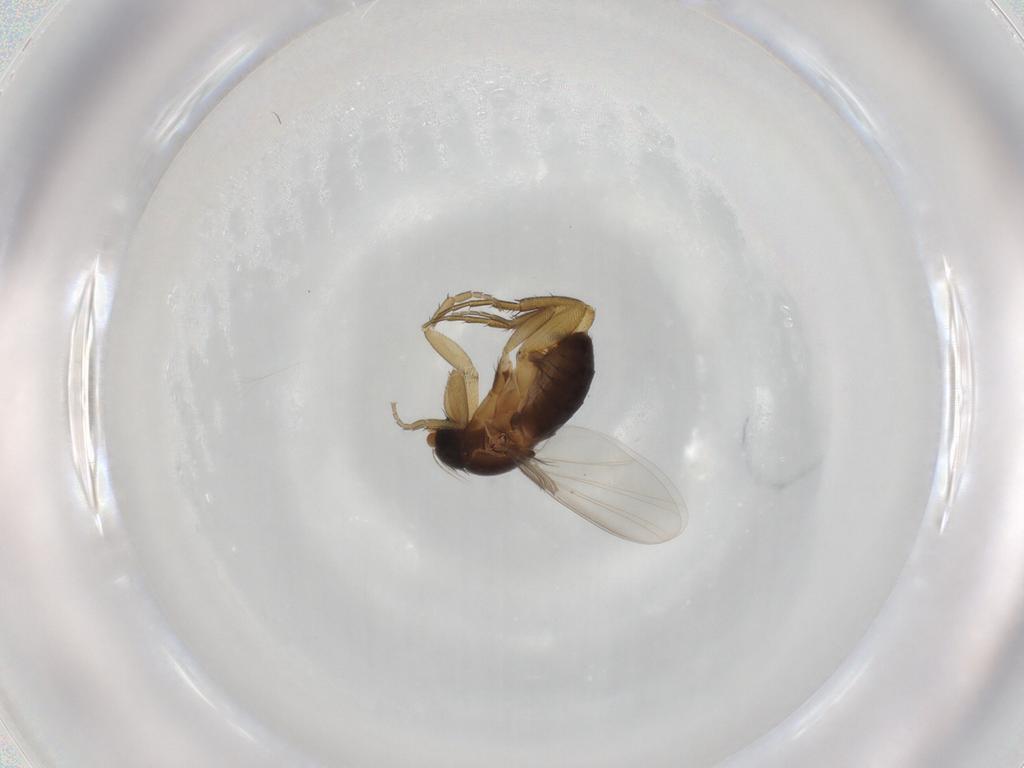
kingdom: Animalia
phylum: Arthropoda
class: Insecta
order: Diptera
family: Phoridae
